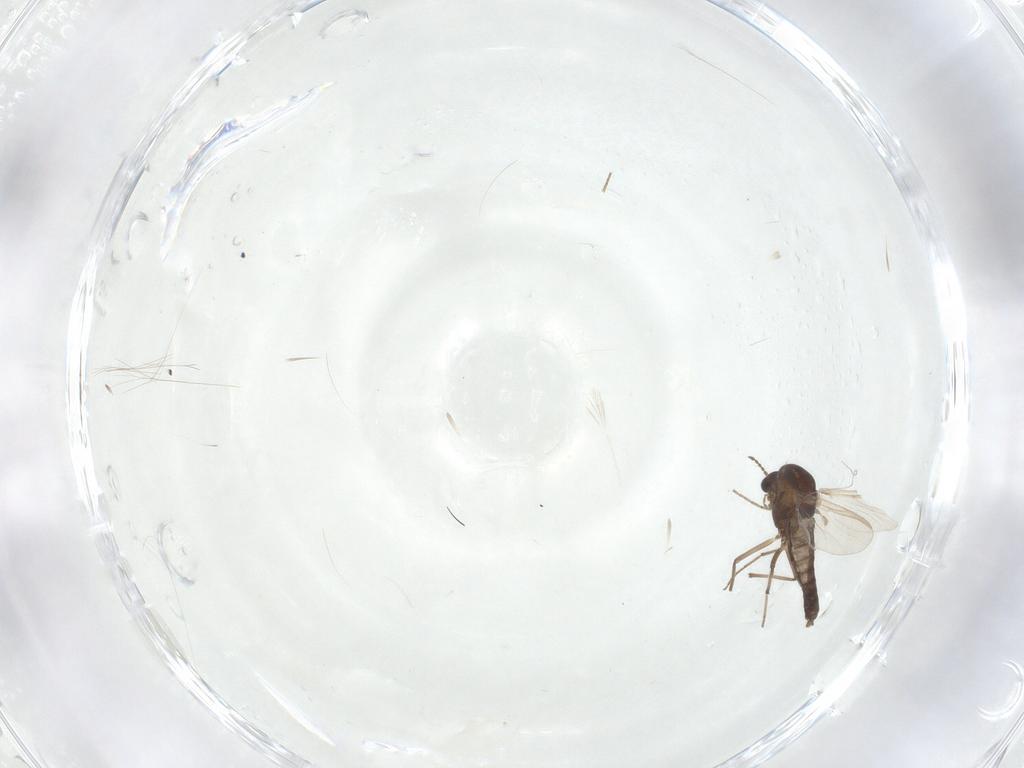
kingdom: Animalia
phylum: Arthropoda
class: Insecta
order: Diptera
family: Chironomidae
